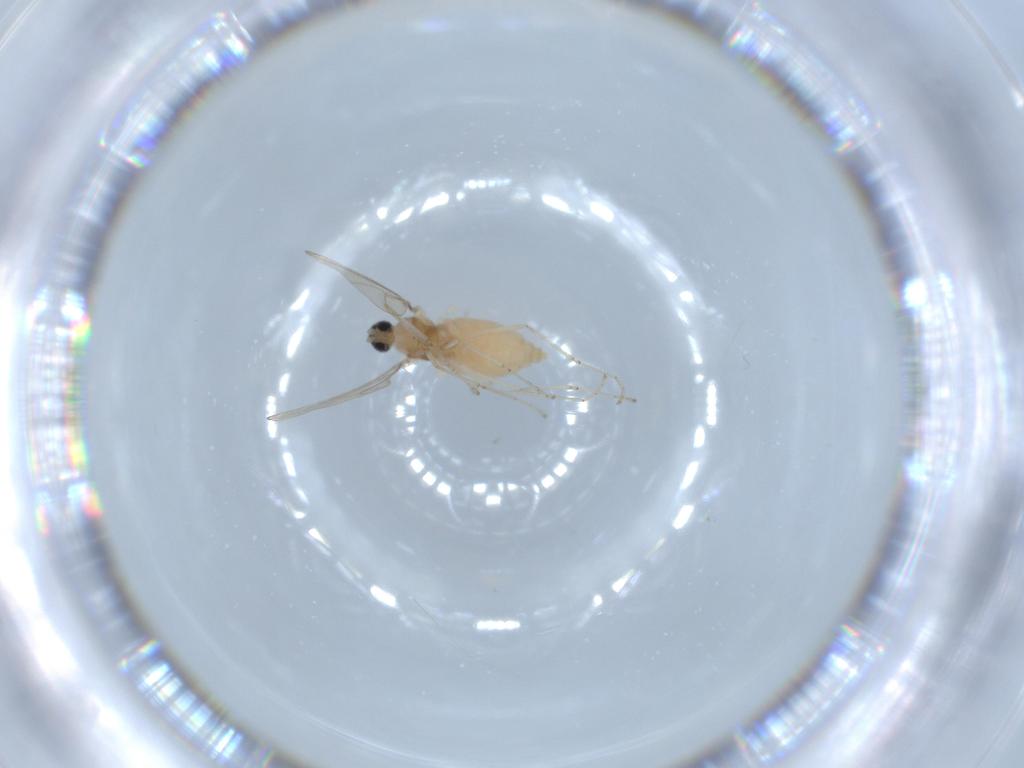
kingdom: Animalia
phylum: Arthropoda
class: Insecta
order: Diptera
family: Cecidomyiidae
